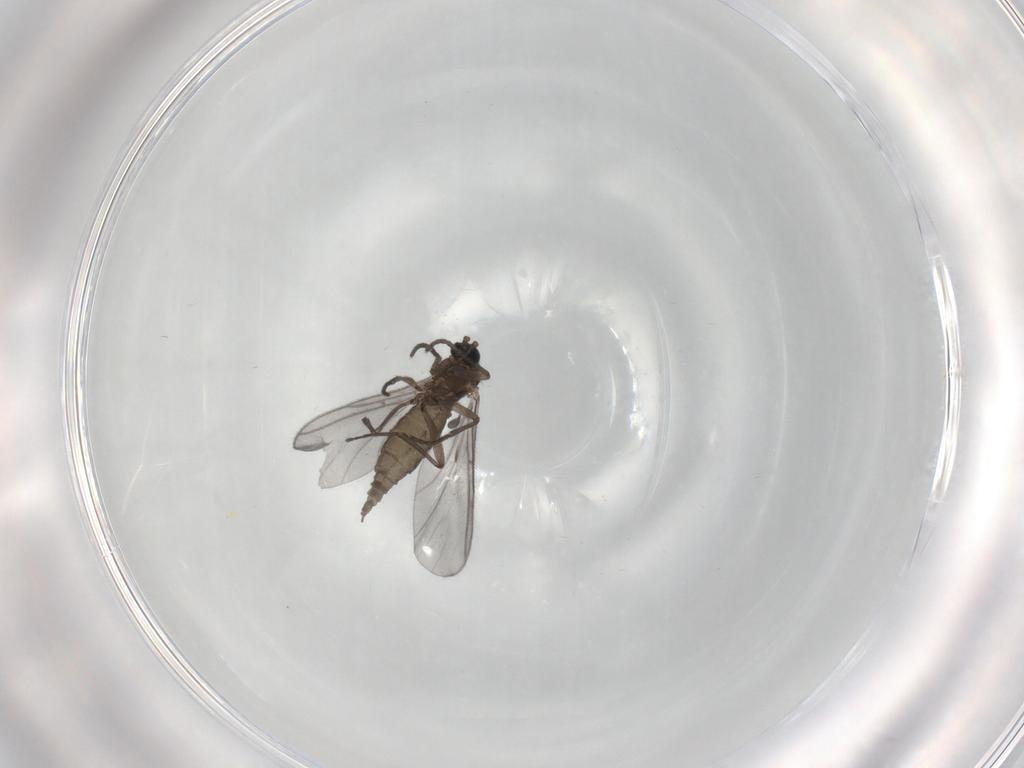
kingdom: Animalia
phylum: Arthropoda
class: Insecta
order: Diptera
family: Sciaridae
